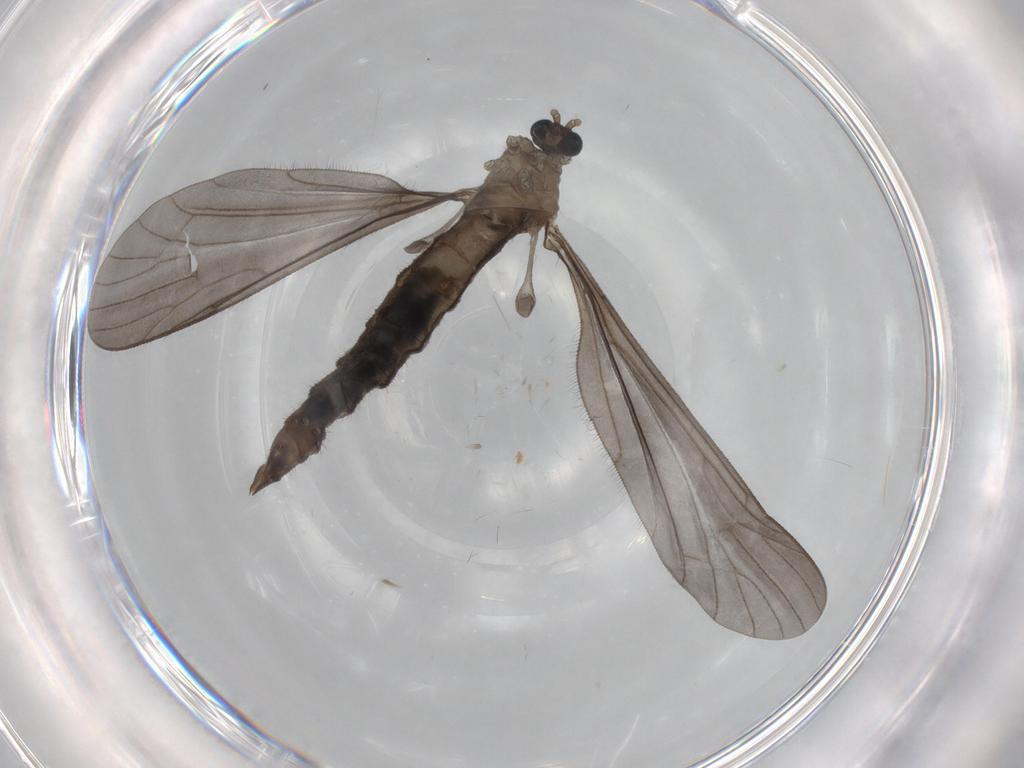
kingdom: Animalia
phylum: Arthropoda
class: Insecta
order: Diptera
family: Limoniidae
